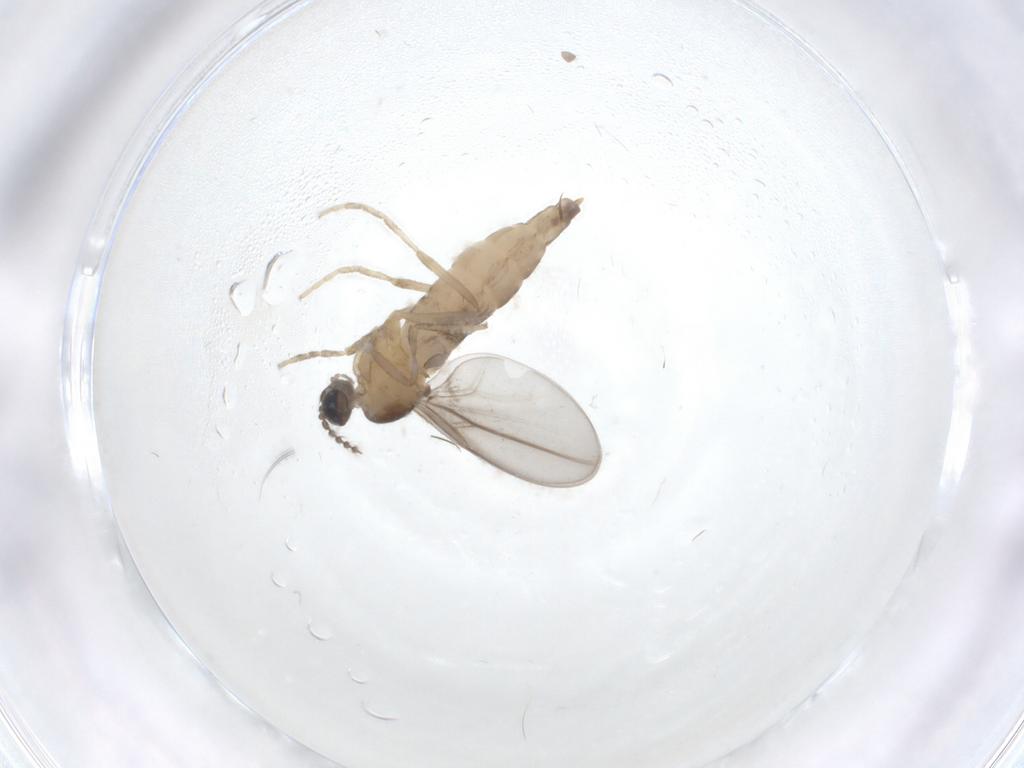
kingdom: Animalia
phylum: Arthropoda
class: Insecta
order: Diptera
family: Cecidomyiidae
